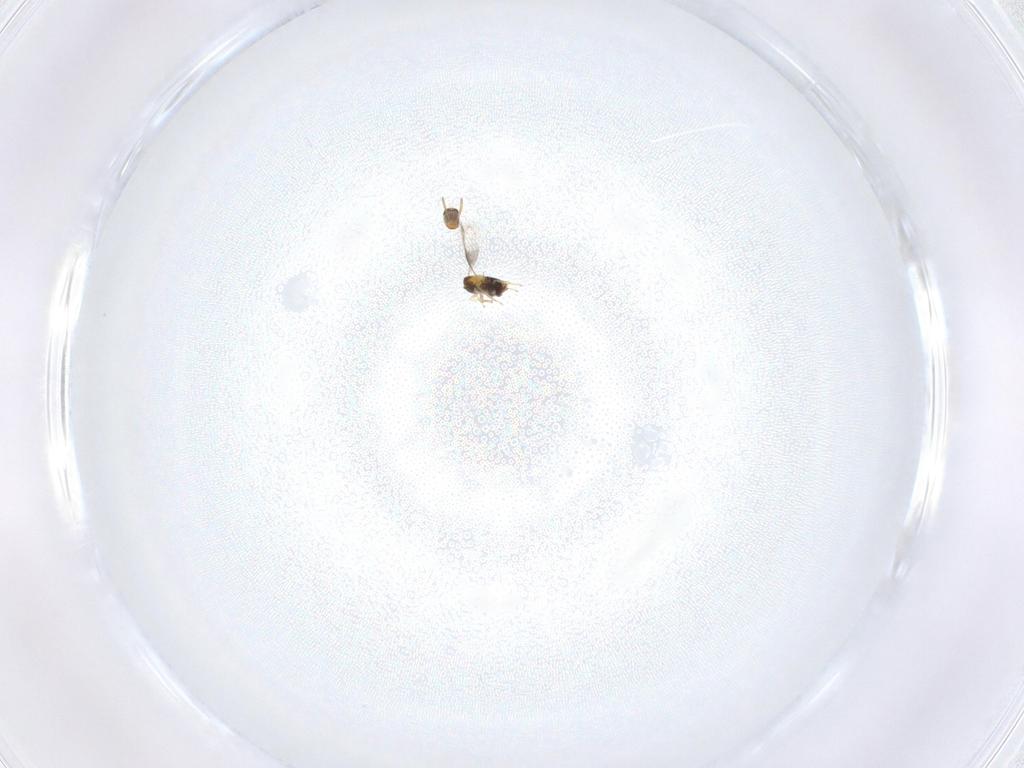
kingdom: Animalia
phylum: Arthropoda
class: Insecta
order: Hymenoptera
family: Aphelinidae
